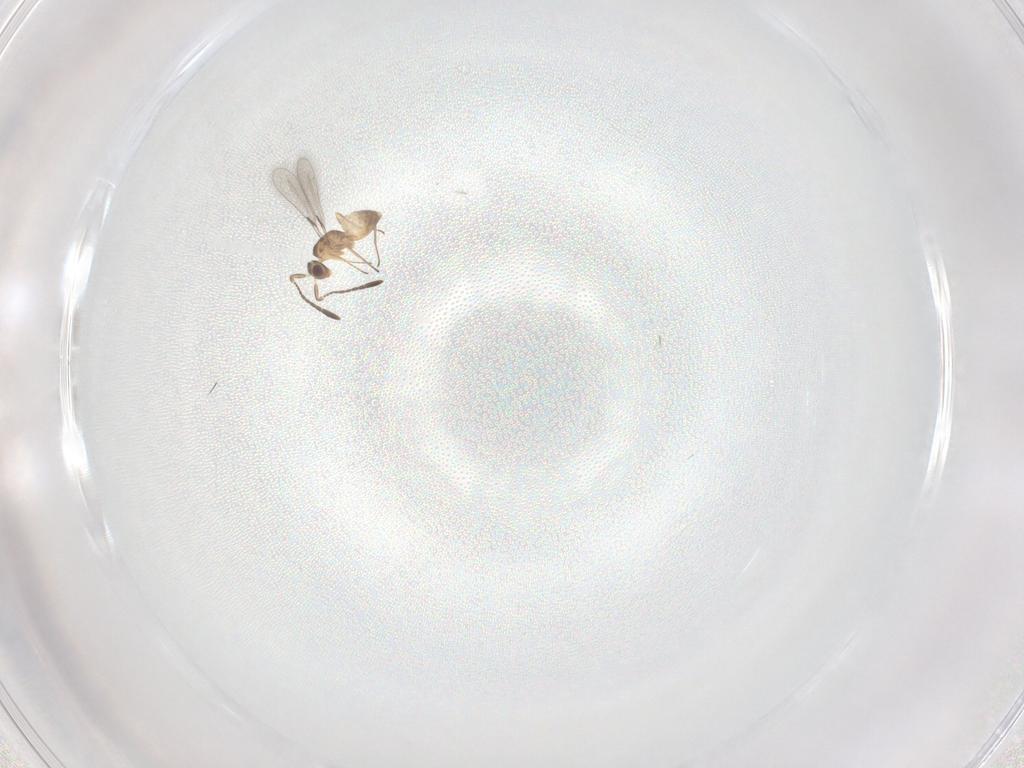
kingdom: Animalia
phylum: Arthropoda
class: Insecta
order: Hymenoptera
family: Mymaridae
